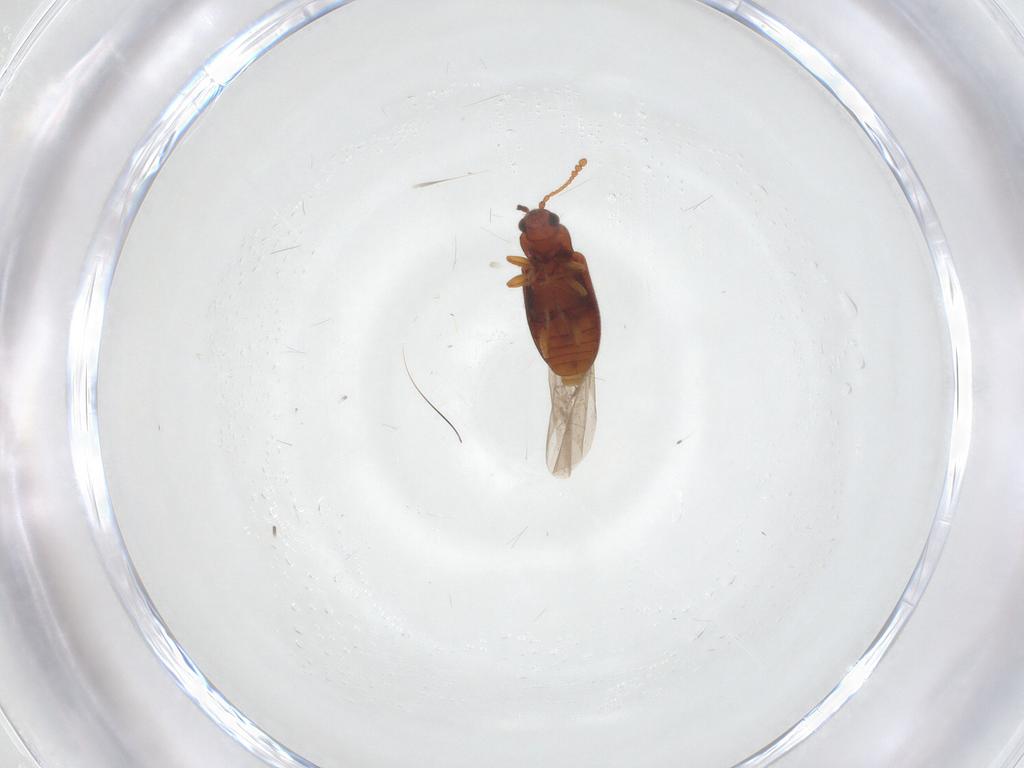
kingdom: Animalia
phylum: Arthropoda
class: Insecta
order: Coleoptera
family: Cryptophagidae
